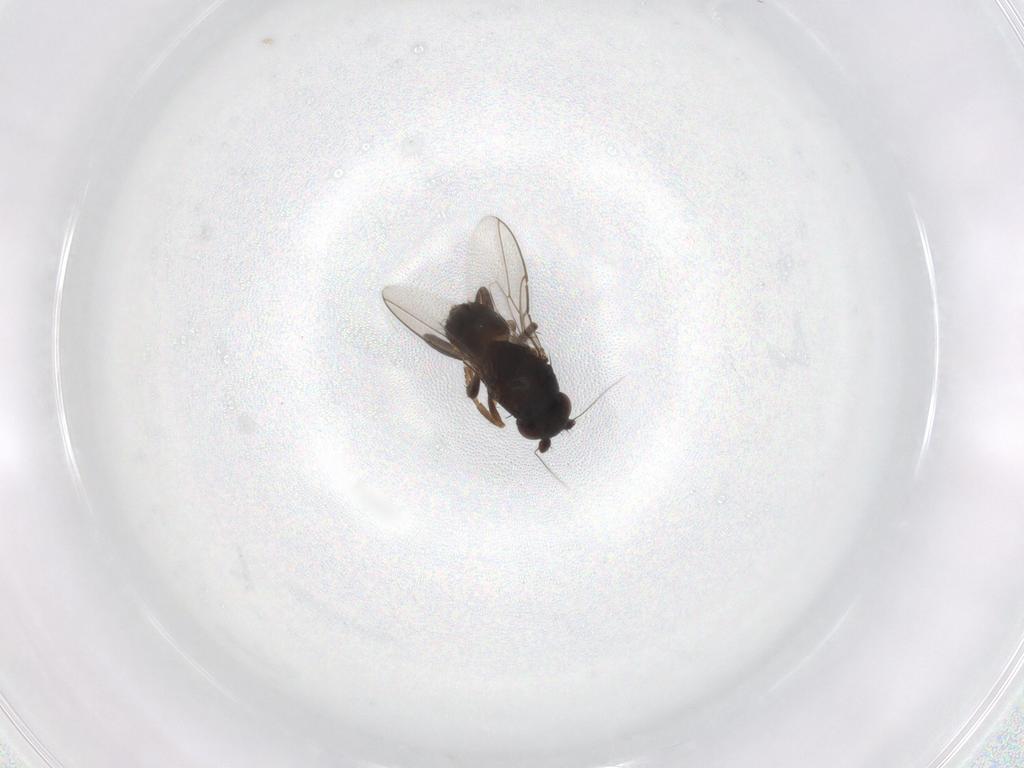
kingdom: Animalia
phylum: Arthropoda
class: Insecta
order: Diptera
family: Sphaeroceridae
